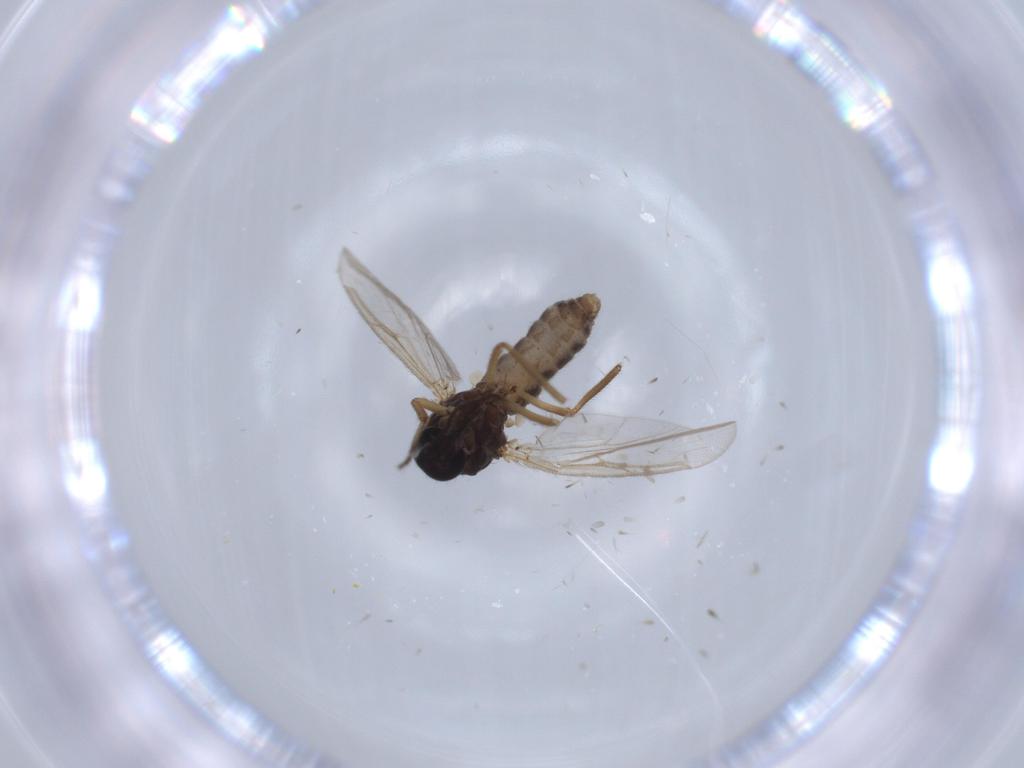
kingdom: Animalia
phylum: Arthropoda
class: Insecta
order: Diptera
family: Ceratopogonidae
